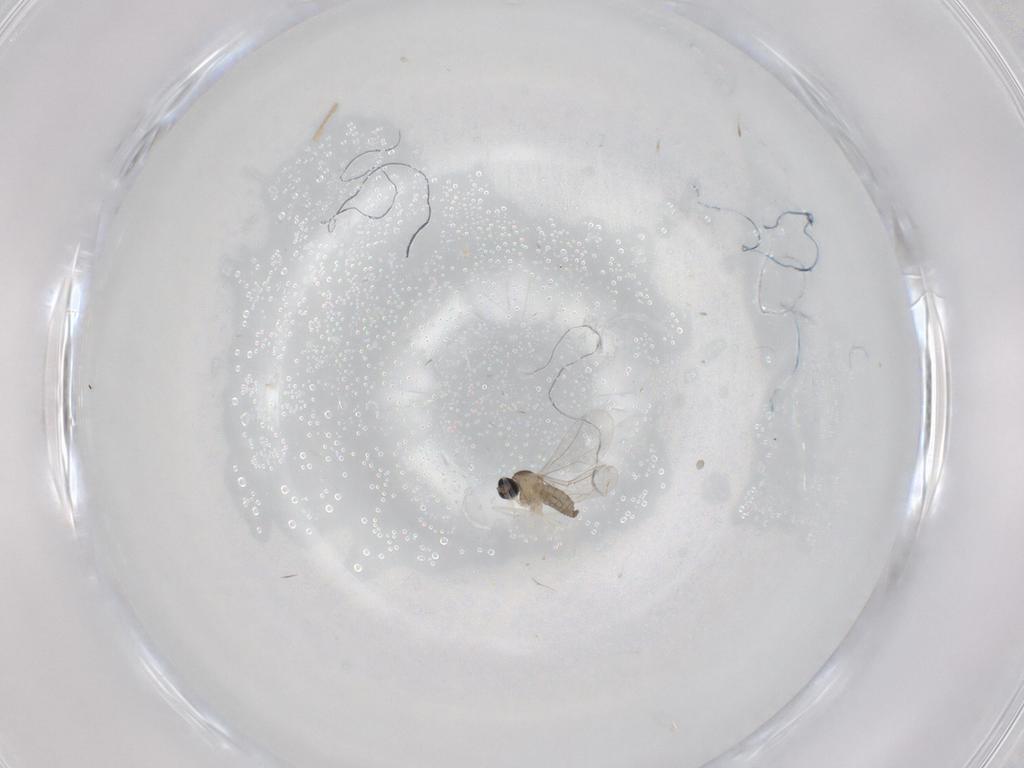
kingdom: Animalia
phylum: Arthropoda
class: Insecta
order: Diptera
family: Cecidomyiidae
